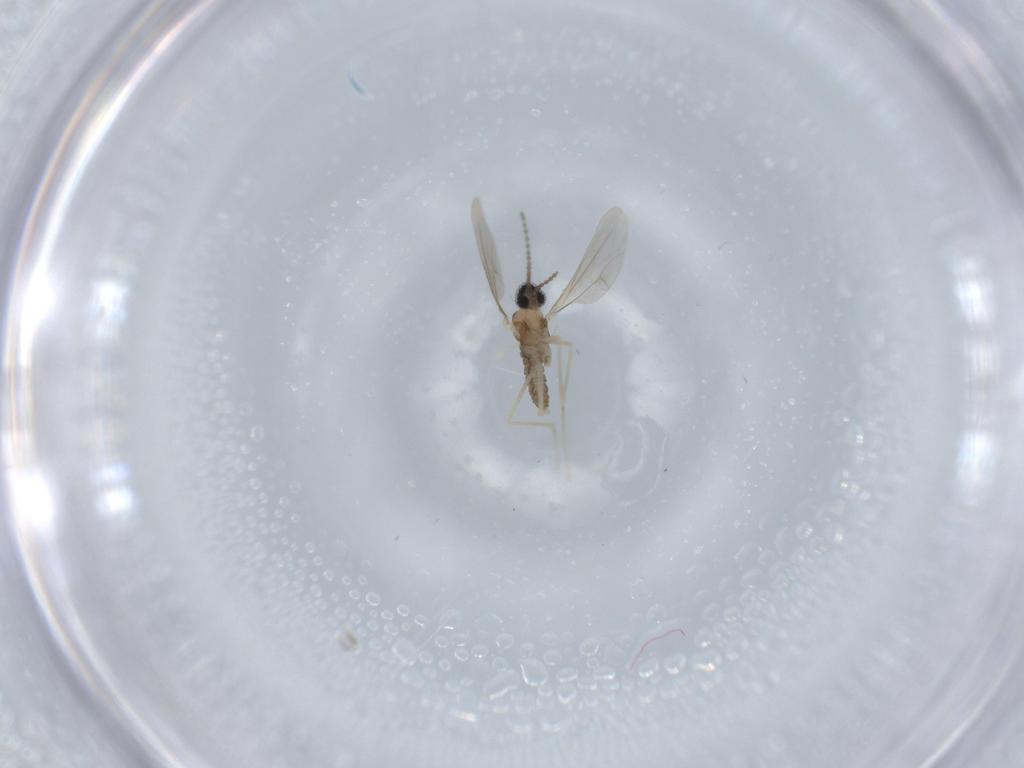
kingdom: Animalia
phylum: Arthropoda
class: Insecta
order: Diptera
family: Cecidomyiidae
